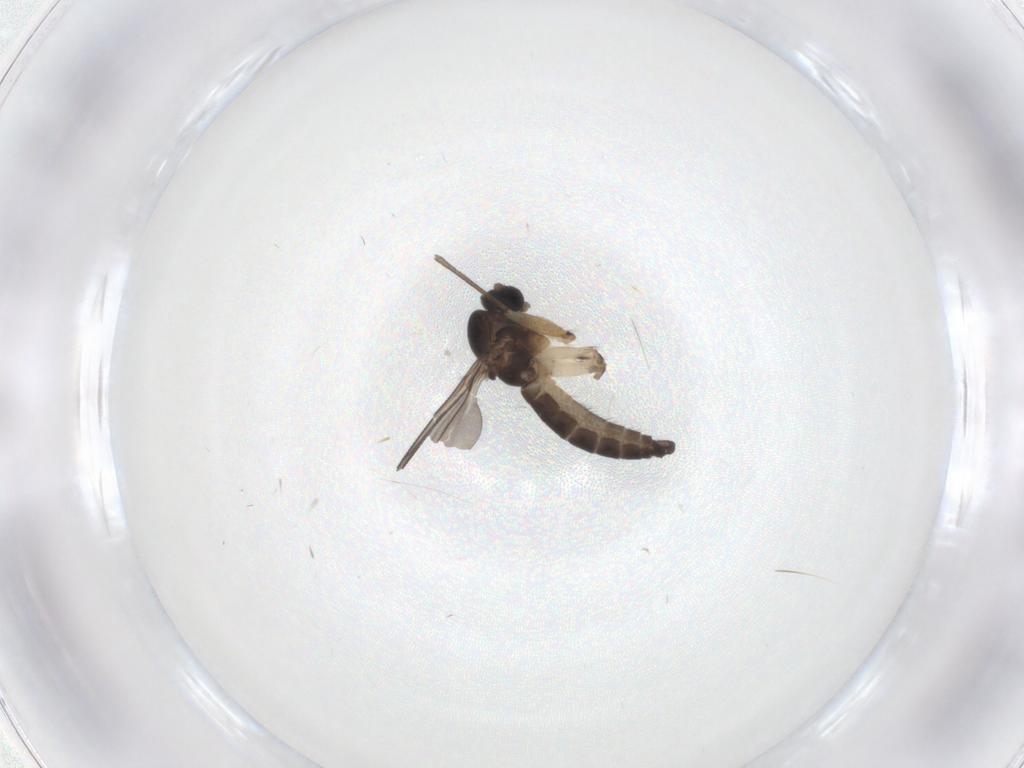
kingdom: Animalia
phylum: Arthropoda
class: Insecta
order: Diptera
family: Sciaridae
